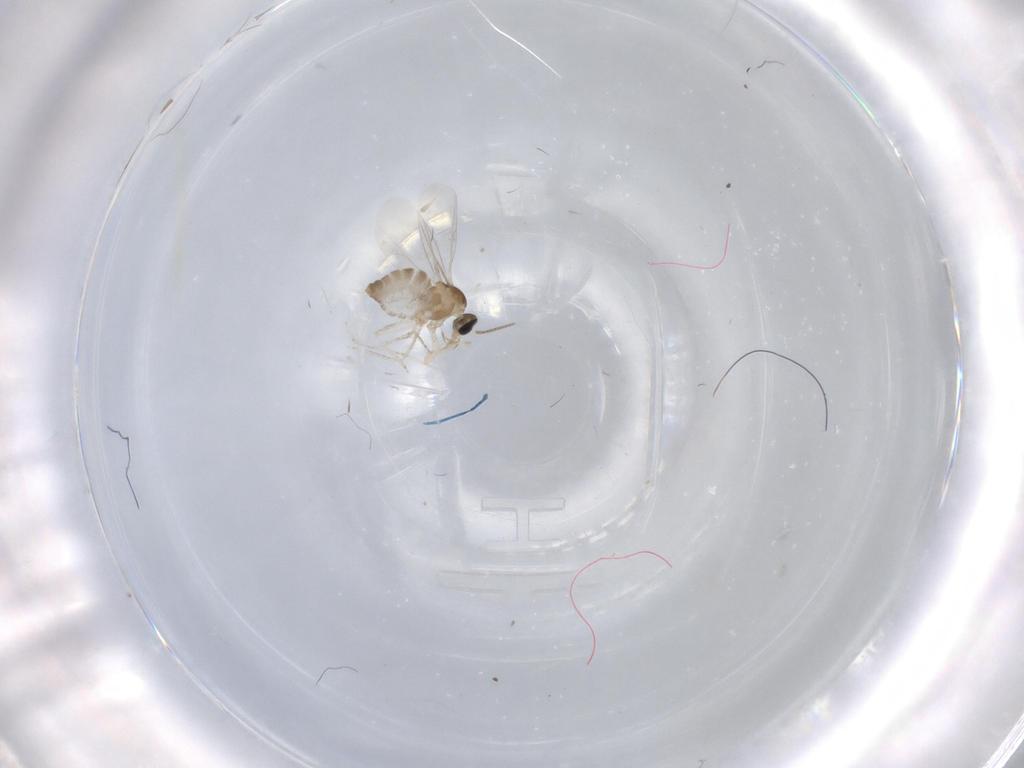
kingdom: Animalia
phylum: Arthropoda
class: Insecta
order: Diptera
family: Cecidomyiidae
